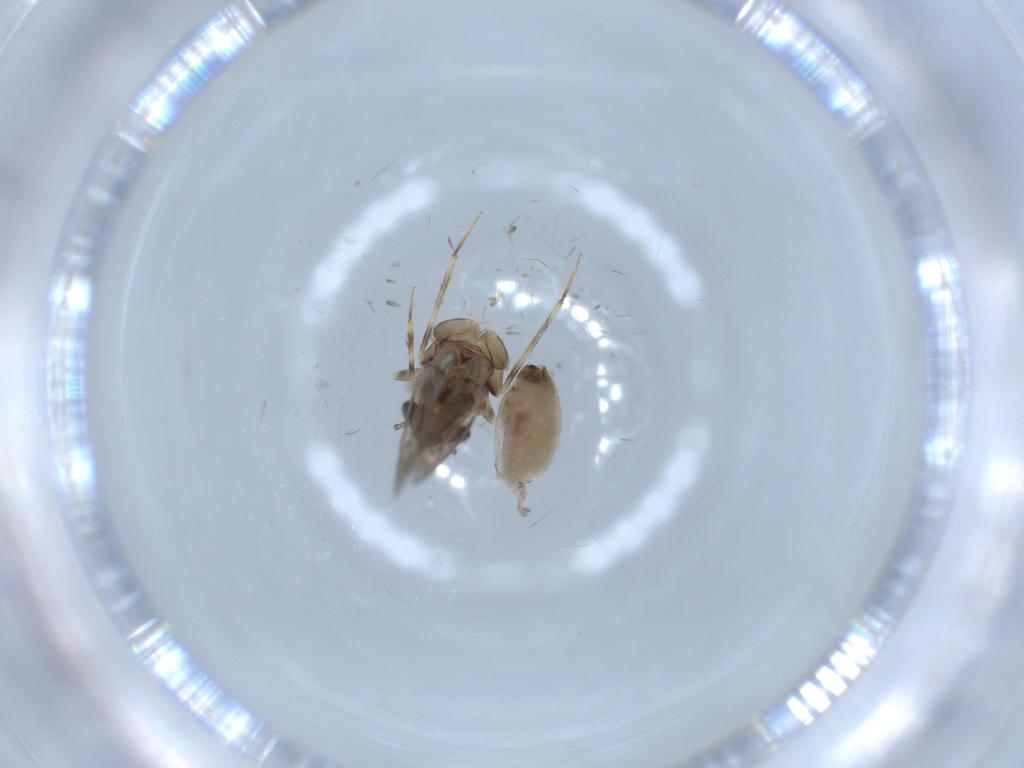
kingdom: Animalia
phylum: Arthropoda
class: Insecta
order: Psocodea
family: Lepidopsocidae
